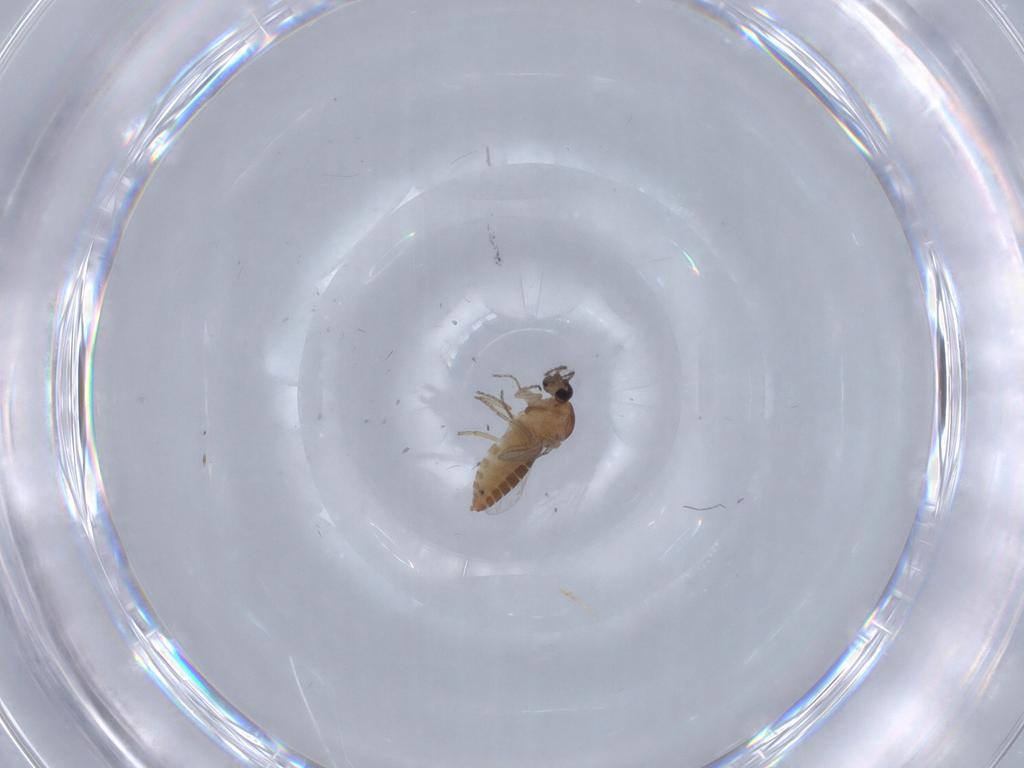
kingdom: Animalia
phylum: Arthropoda
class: Insecta
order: Diptera
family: Ceratopogonidae
